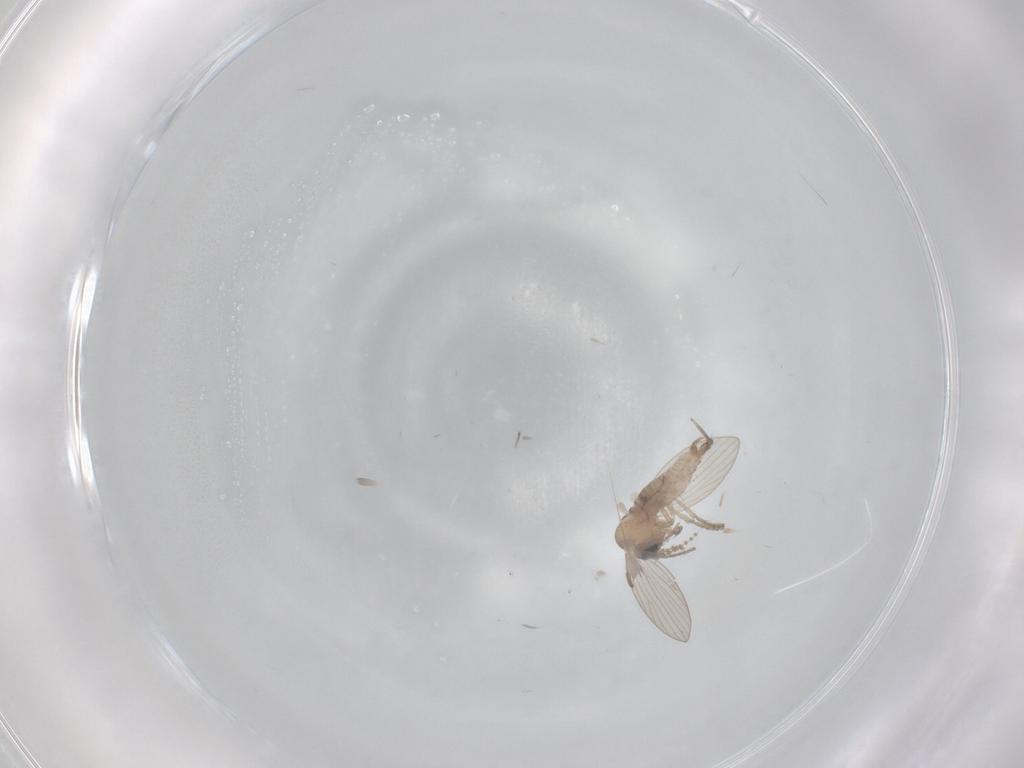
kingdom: Animalia
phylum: Arthropoda
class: Insecta
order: Diptera
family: Psychodidae
